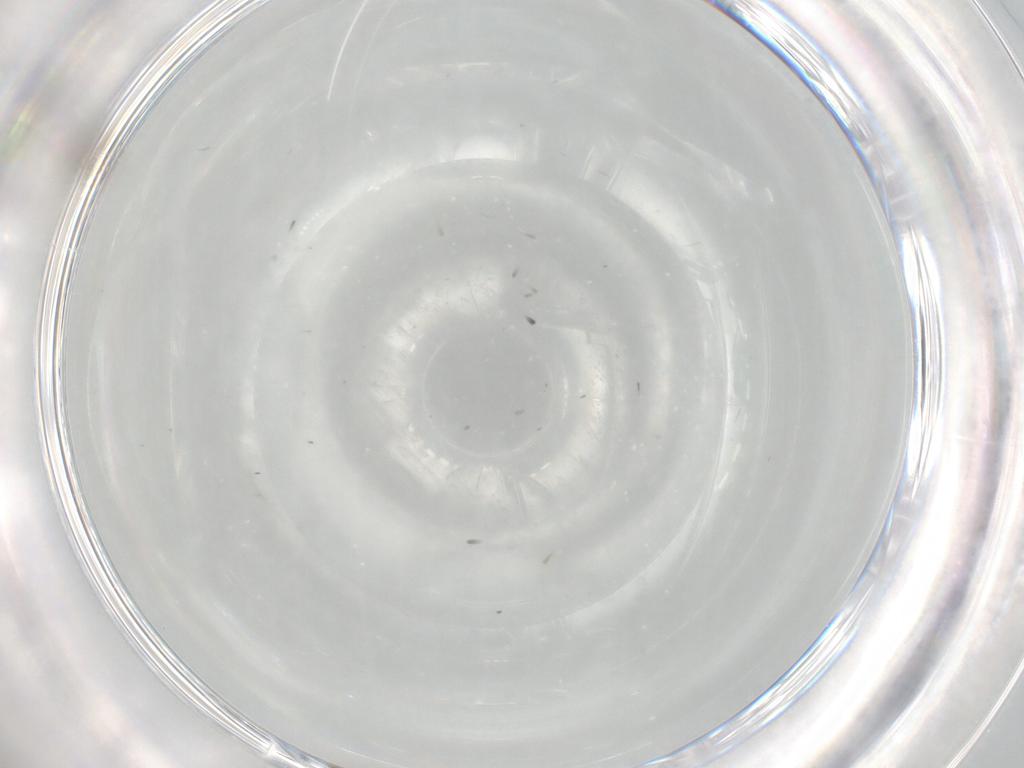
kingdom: Animalia
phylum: Arthropoda
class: Insecta
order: Diptera
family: Cecidomyiidae
